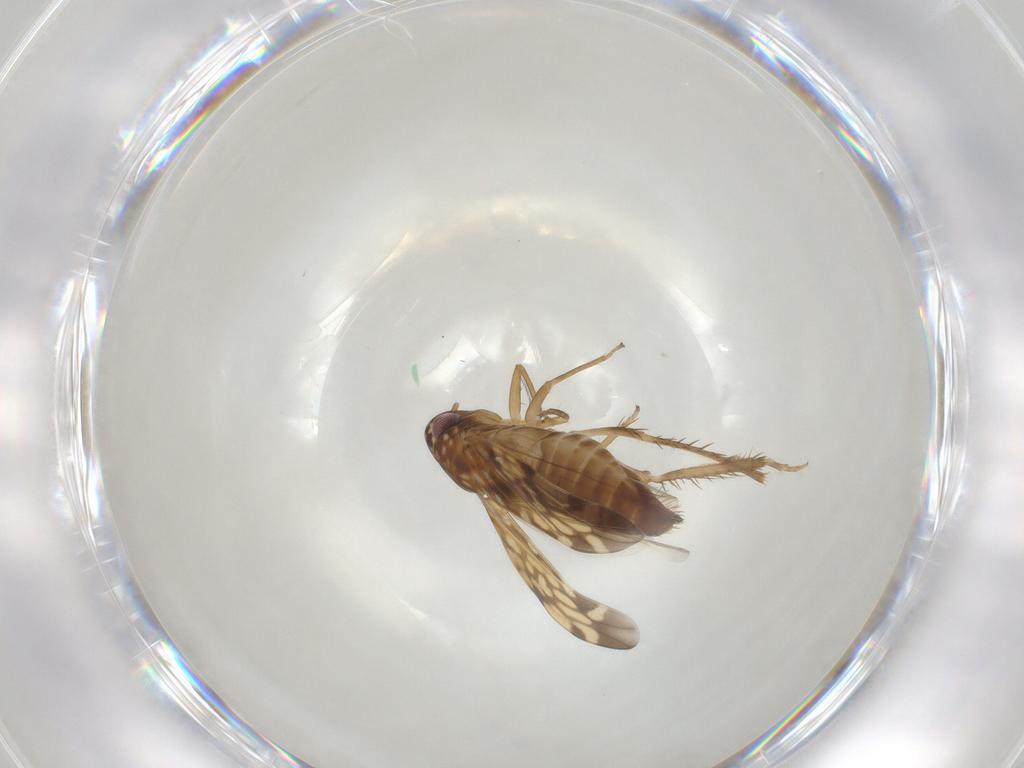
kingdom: Animalia
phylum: Arthropoda
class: Insecta
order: Hemiptera
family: Cicadellidae
